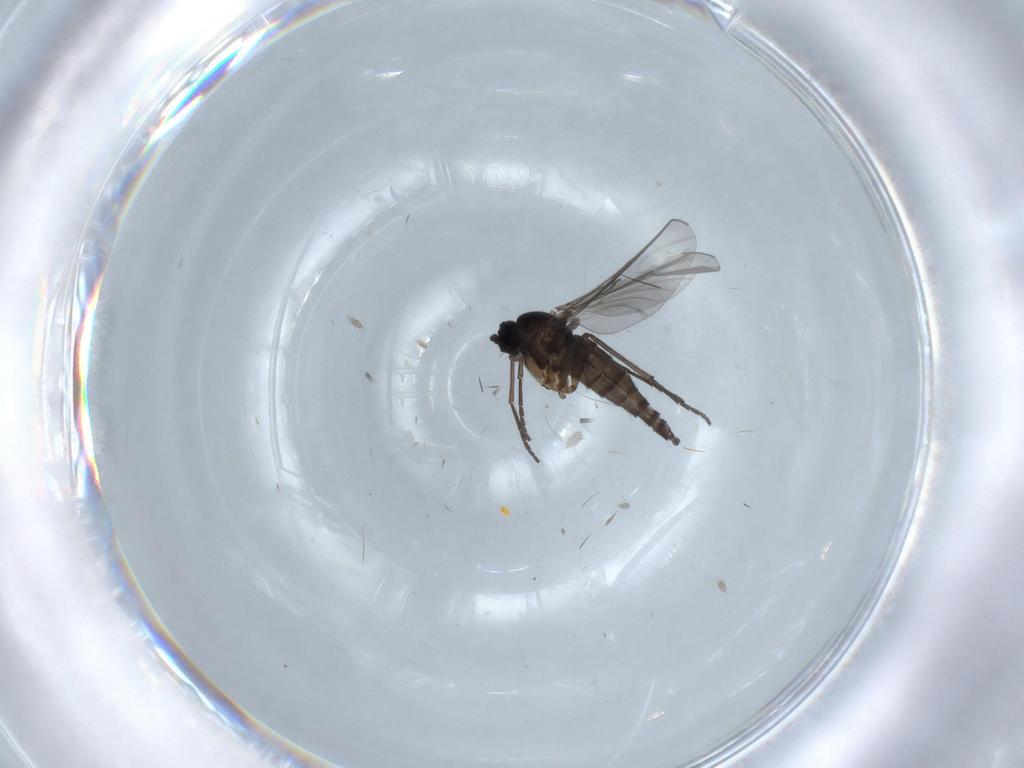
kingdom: Animalia
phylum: Arthropoda
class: Insecta
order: Diptera
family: Sciaridae
